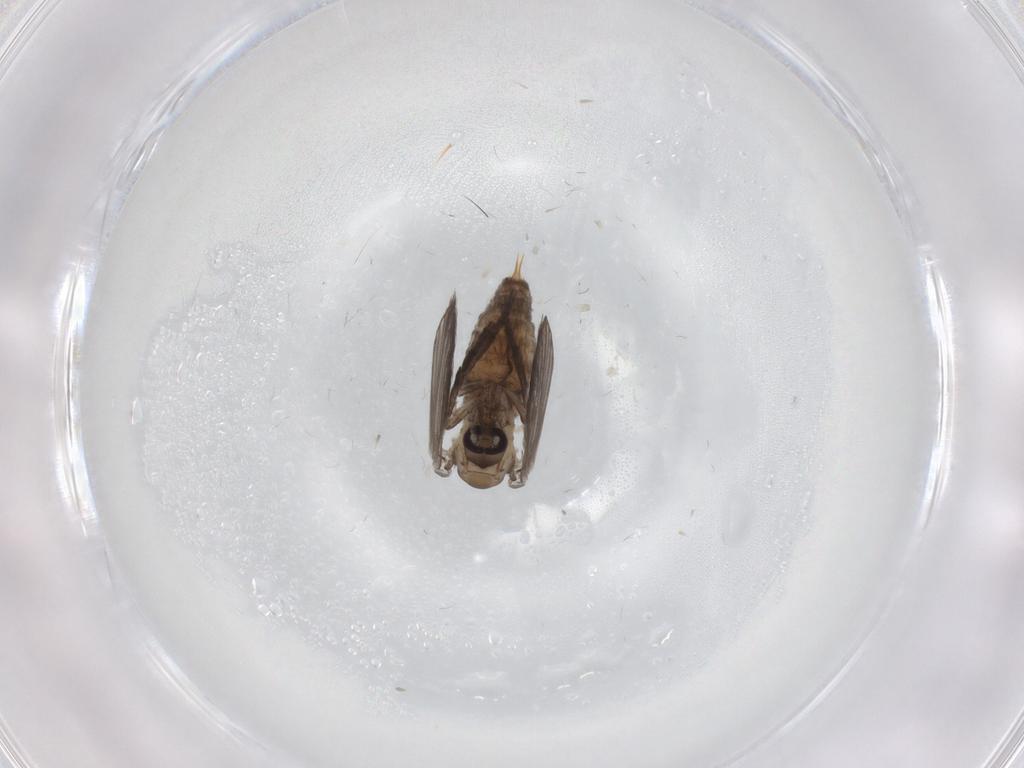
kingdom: Animalia
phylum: Arthropoda
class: Insecta
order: Diptera
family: Psychodidae
